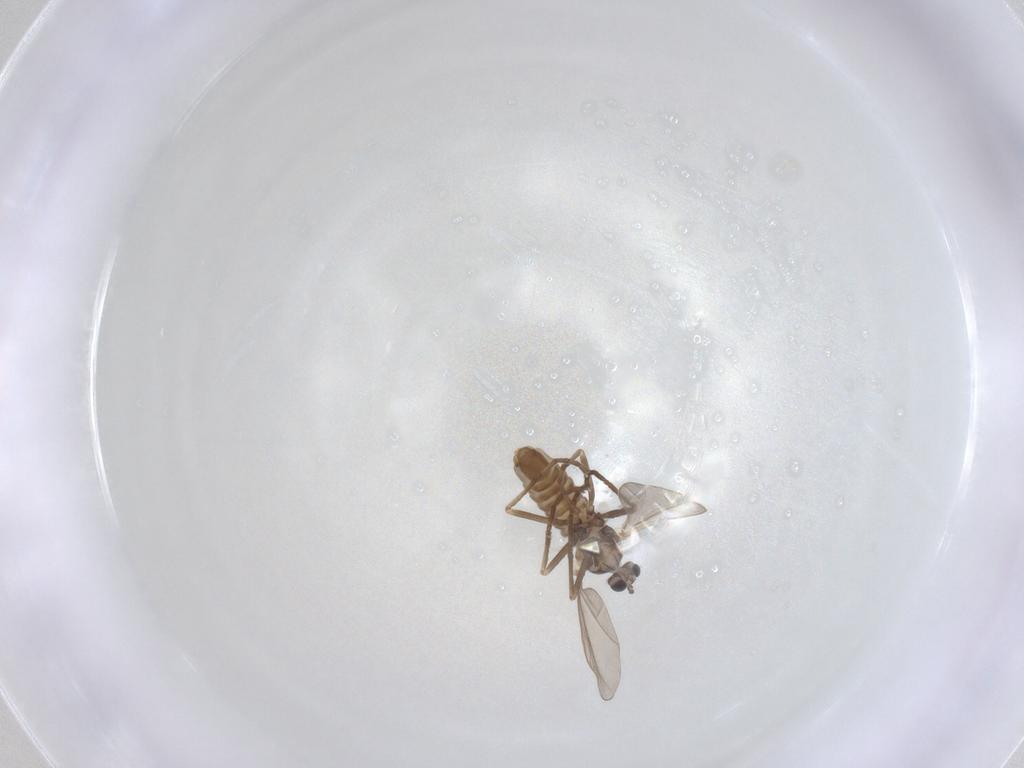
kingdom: Animalia
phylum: Arthropoda
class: Insecta
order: Diptera
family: Cecidomyiidae
